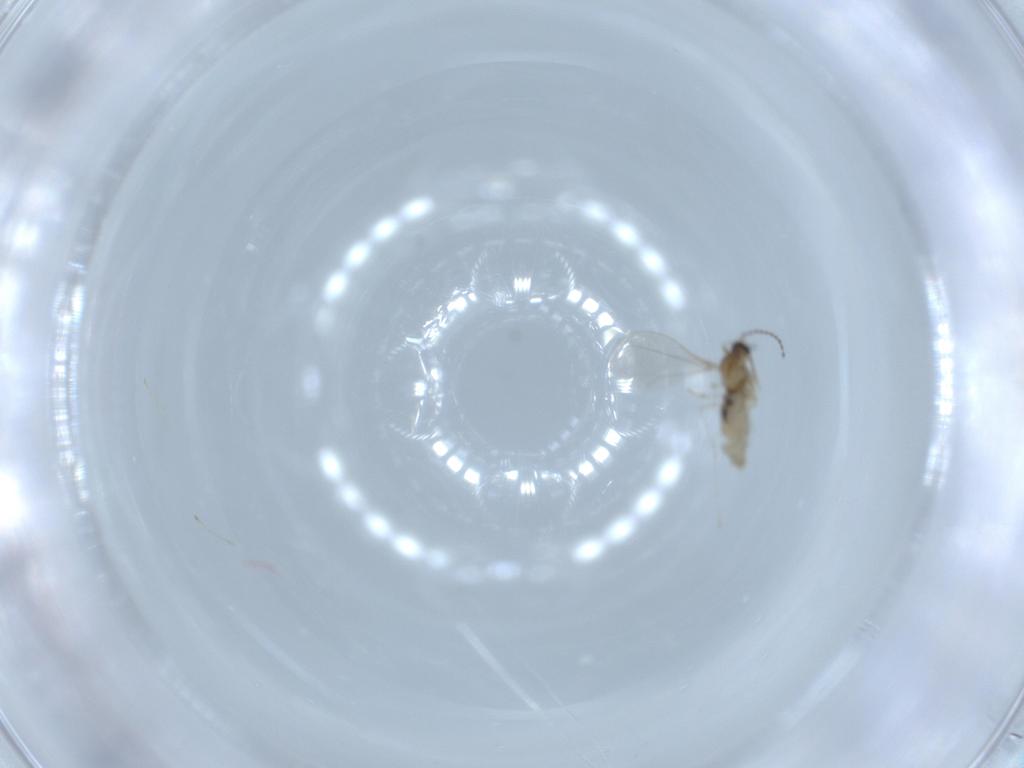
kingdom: Animalia
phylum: Arthropoda
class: Insecta
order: Diptera
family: Cecidomyiidae
